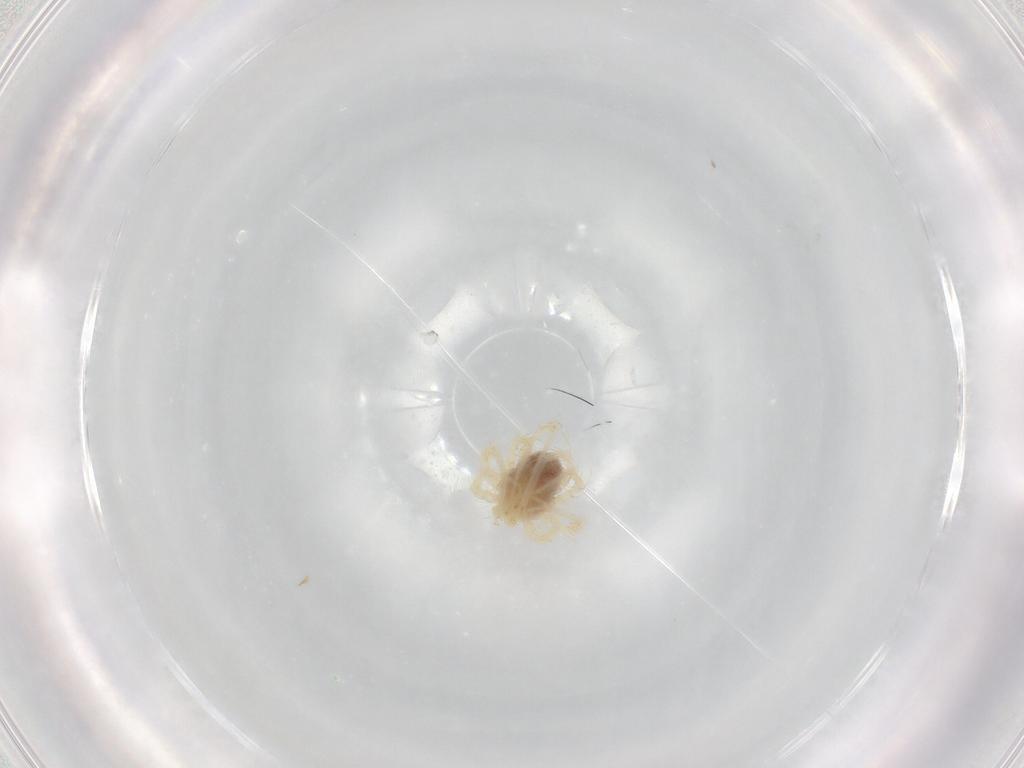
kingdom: Animalia
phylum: Arthropoda
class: Arachnida
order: Trombidiformes
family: Anystidae
